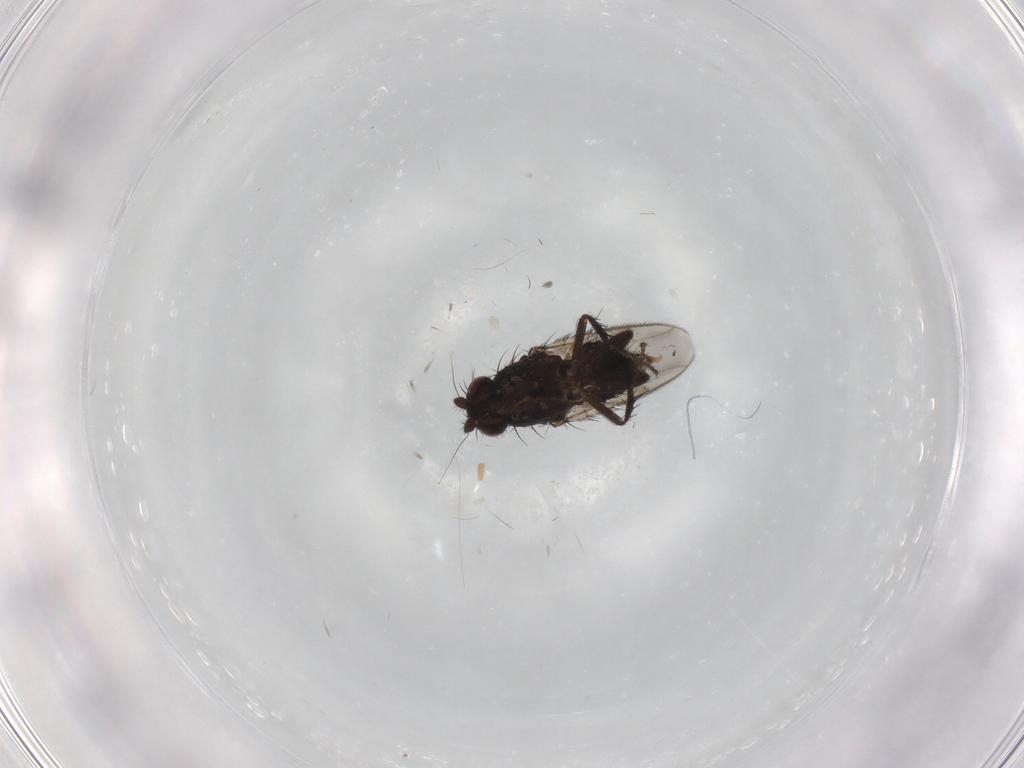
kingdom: Animalia
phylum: Arthropoda
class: Insecta
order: Diptera
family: Sphaeroceridae
